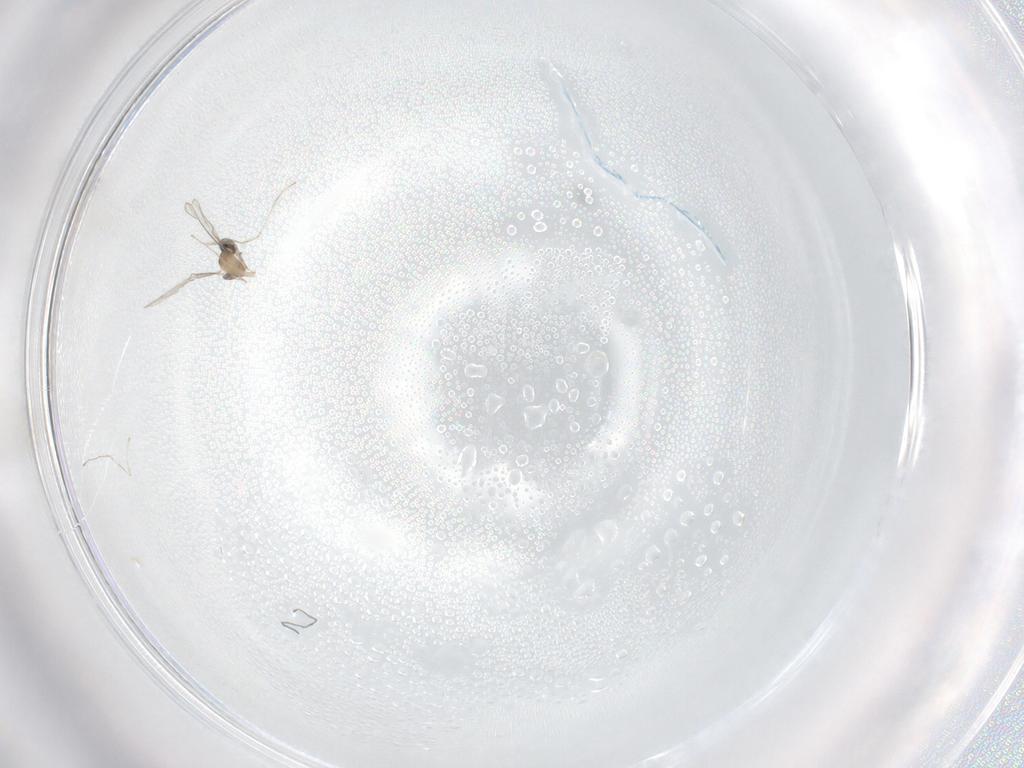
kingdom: Animalia
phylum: Arthropoda
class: Insecta
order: Diptera
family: Cecidomyiidae
